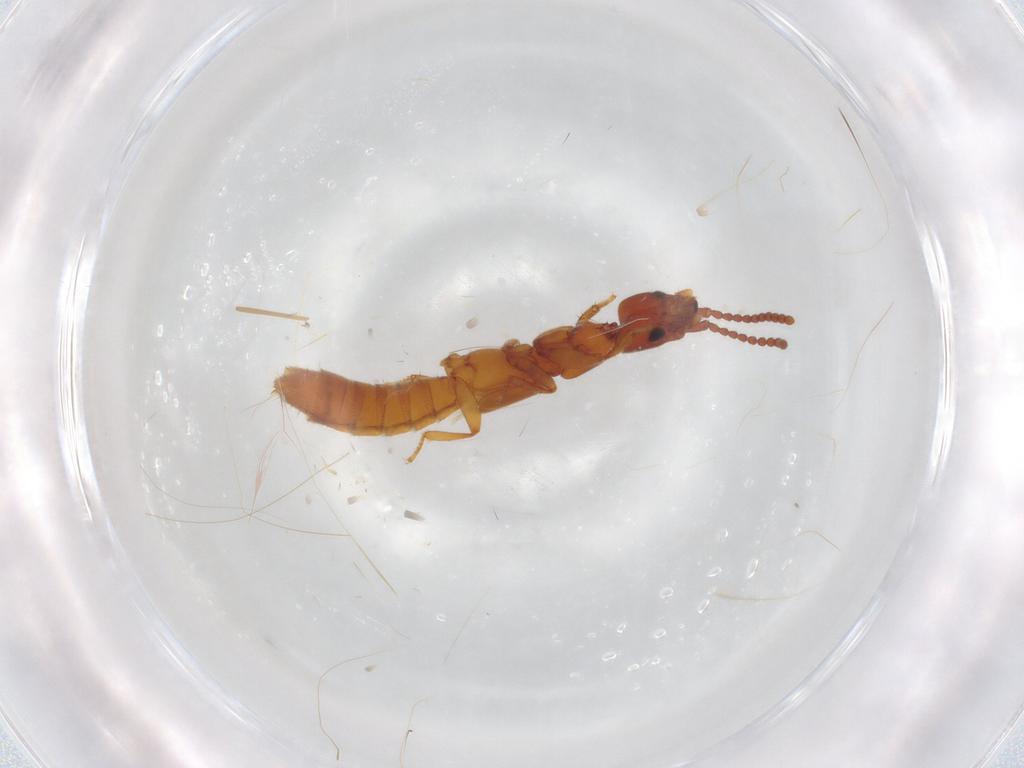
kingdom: Animalia
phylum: Arthropoda
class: Insecta
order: Coleoptera
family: Staphylinidae
